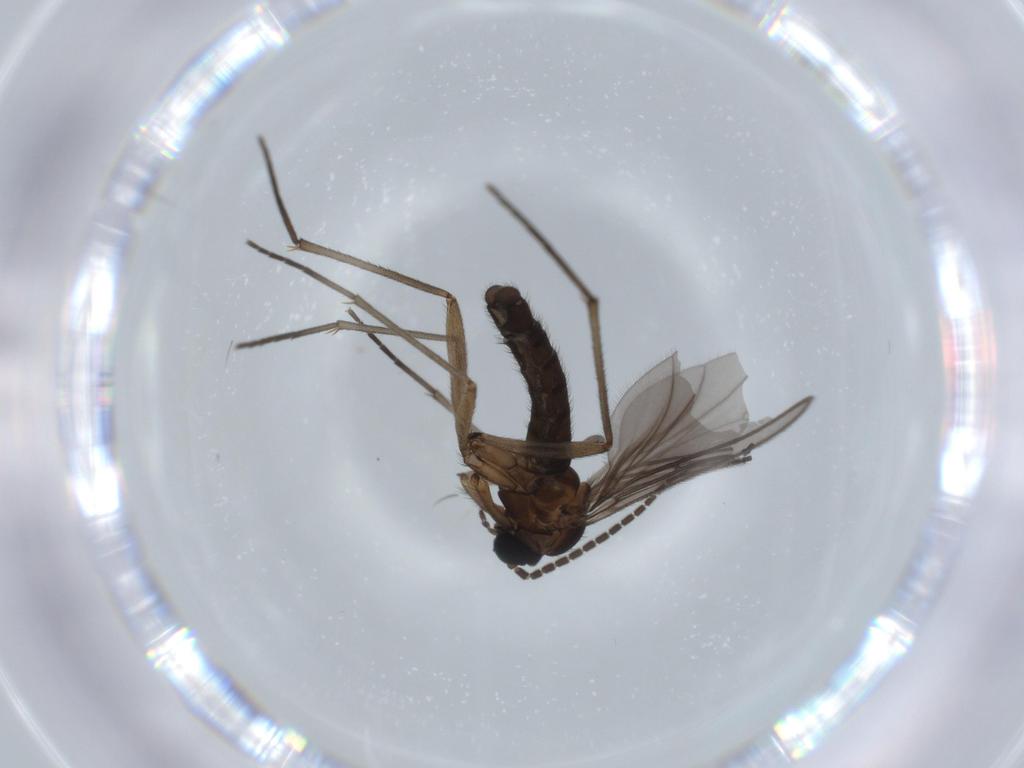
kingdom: Animalia
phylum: Arthropoda
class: Insecta
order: Diptera
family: Sciaridae
